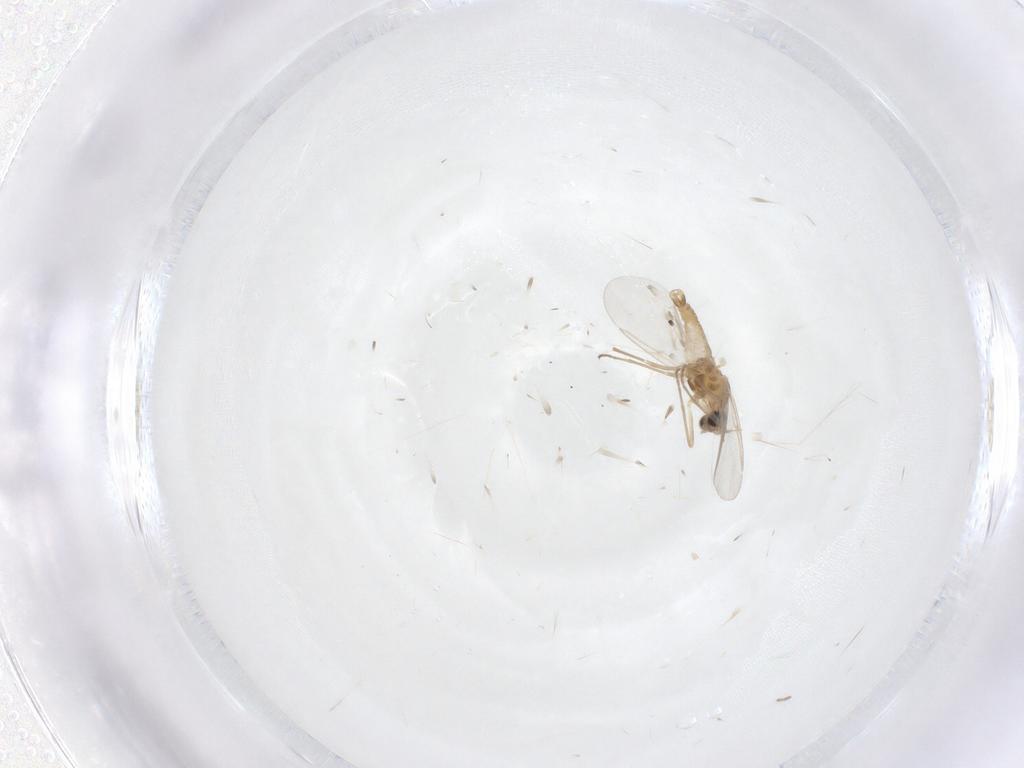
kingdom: Animalia
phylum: Arthropoda
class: Insecta
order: Diptera
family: Cecidomyiidae
